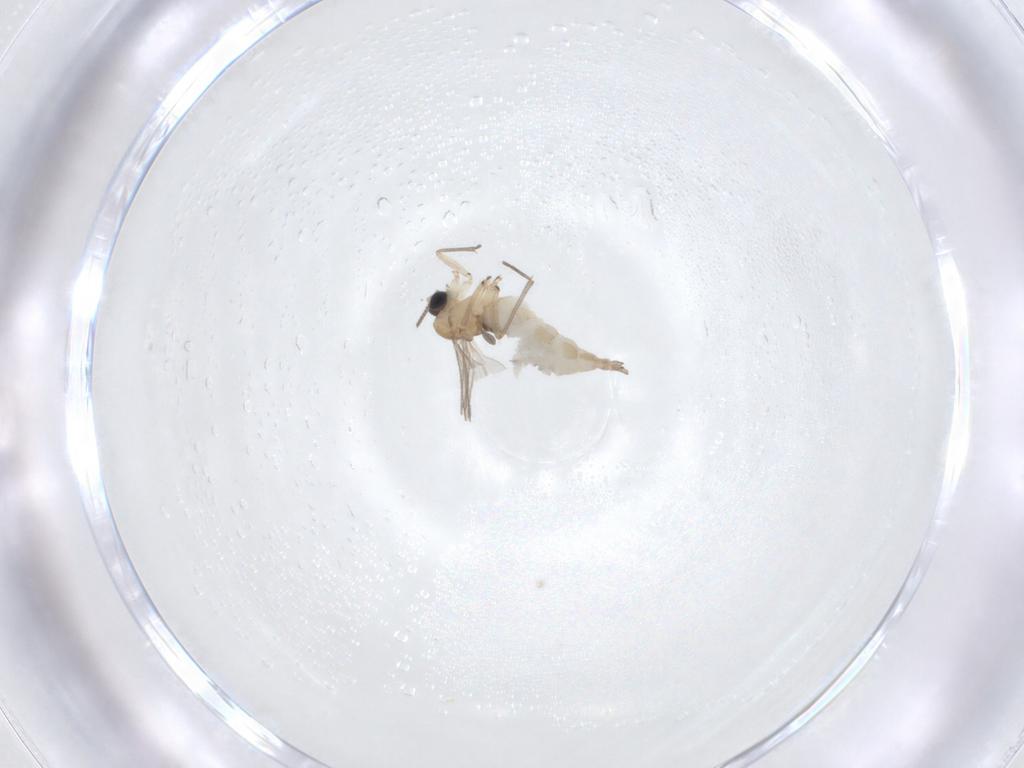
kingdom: Animalia
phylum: Arthropoda
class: Insecta
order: Diptera
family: Sciaridae
